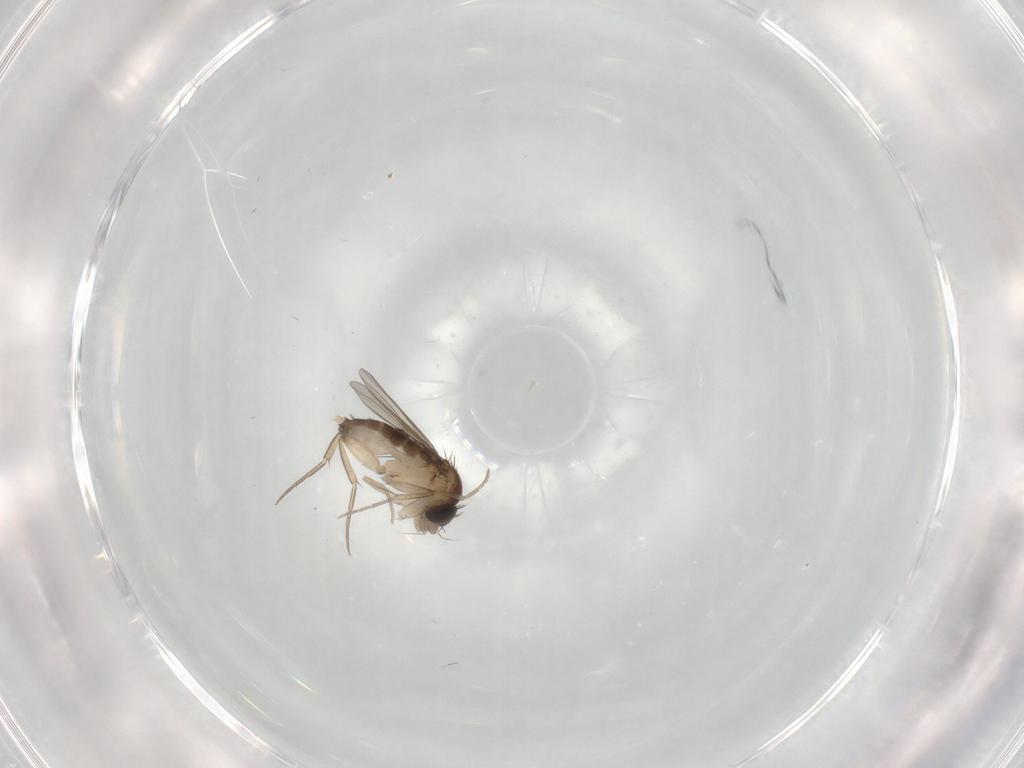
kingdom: Animalia
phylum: Arthropoda
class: Insecta
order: Diptera
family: Phoridae
